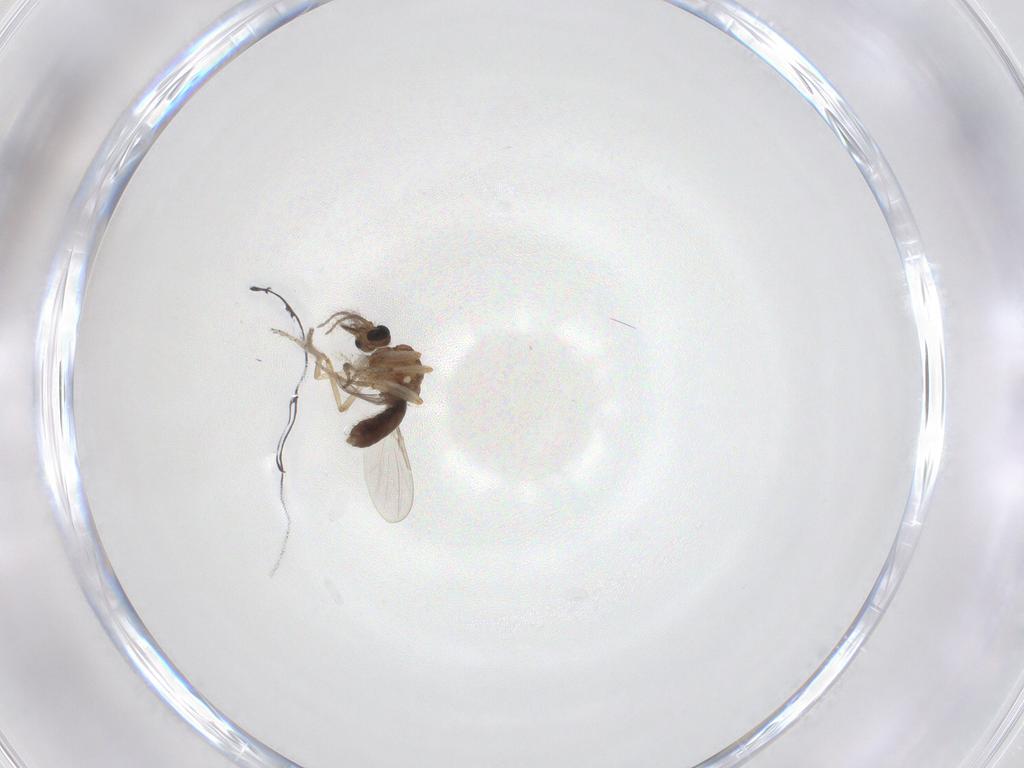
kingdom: Animalia
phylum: Arthropoda
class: Insecta
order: Diptera
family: Ceratopogonidae
